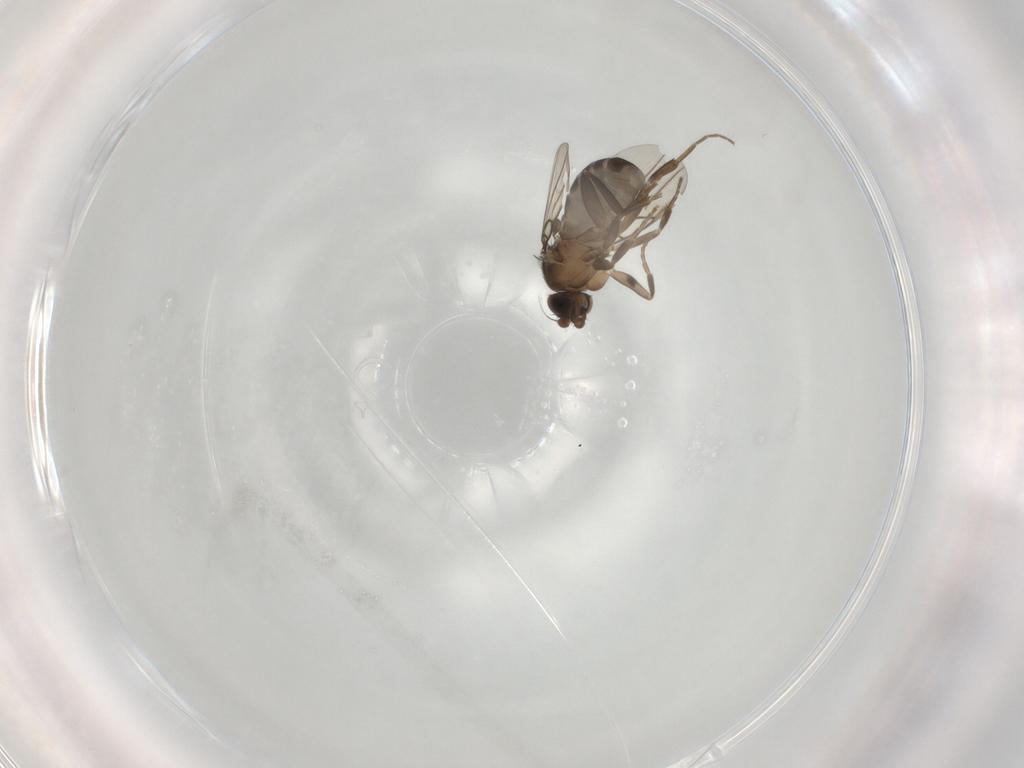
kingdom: Animalia
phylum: Arthropoda
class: Insecta
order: Diptera
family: Phoridae
